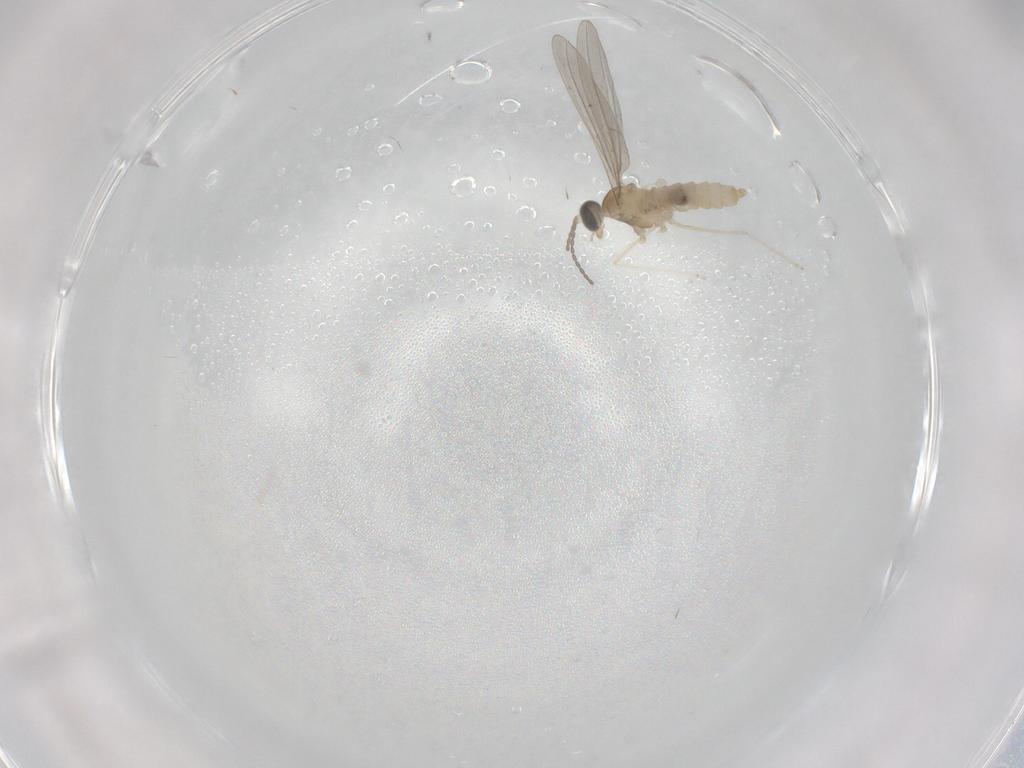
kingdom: Animalia
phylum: Arthropoda
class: Insecta
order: Diptera
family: Cecidomyiidae
